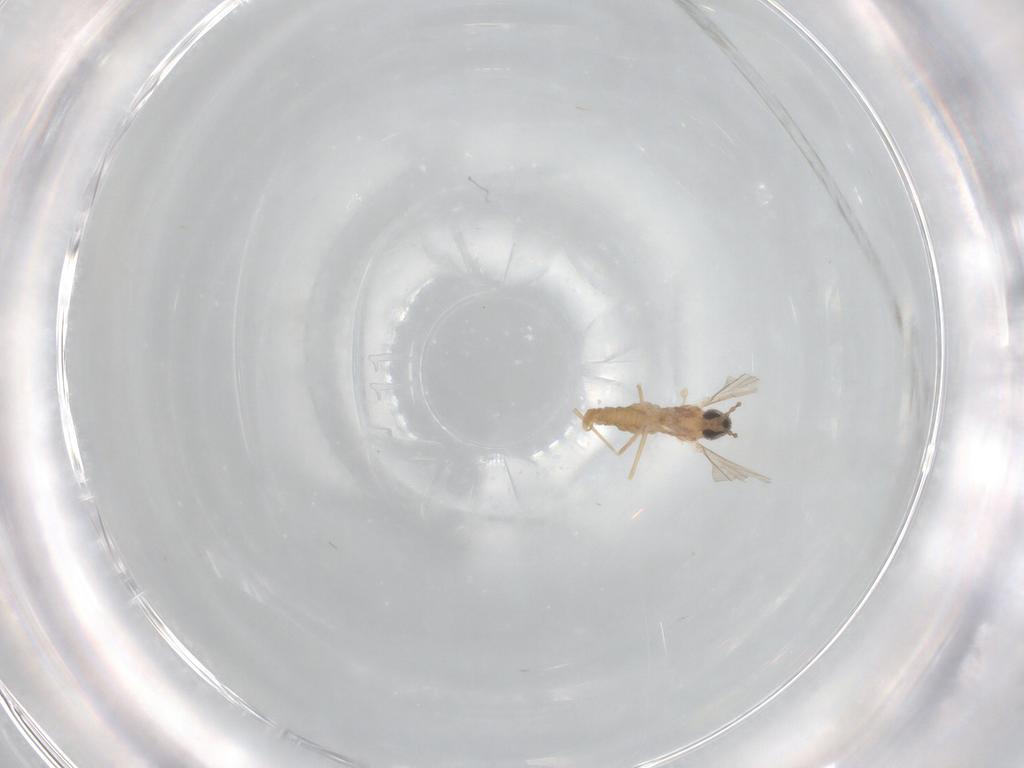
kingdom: Animalia
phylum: Arthropoda
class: Insecta
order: Diptera
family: Cecidomyiidae
